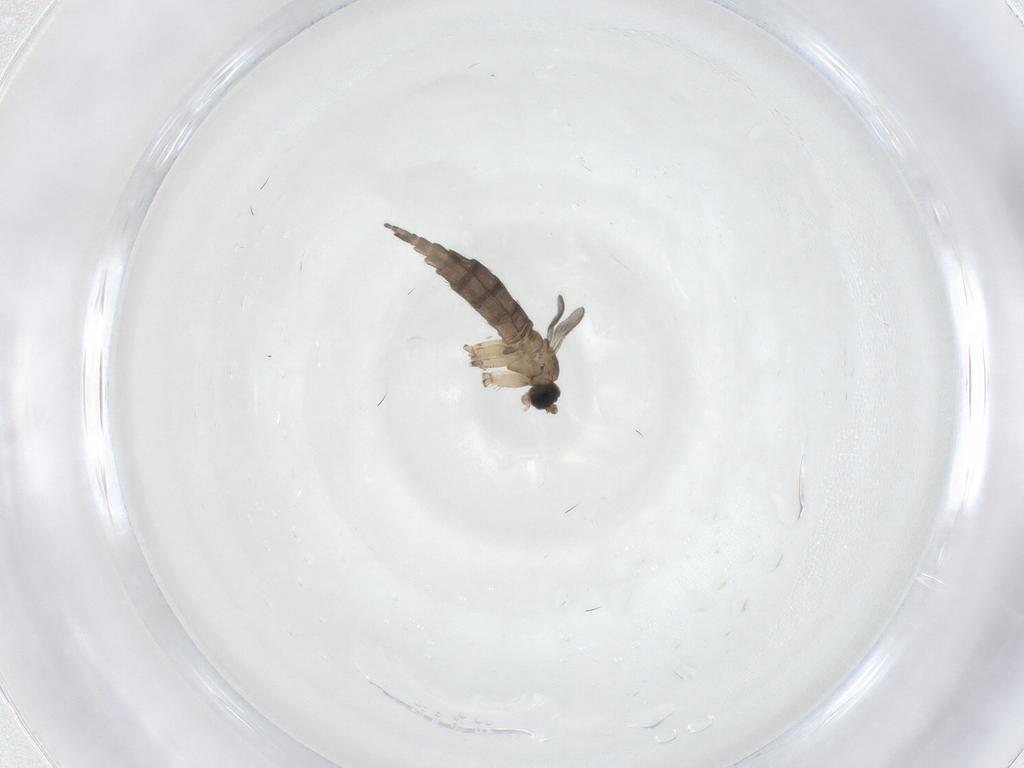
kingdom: Animalia
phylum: Arthropoda
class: Insecta
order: Diptera
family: Sciaridae
